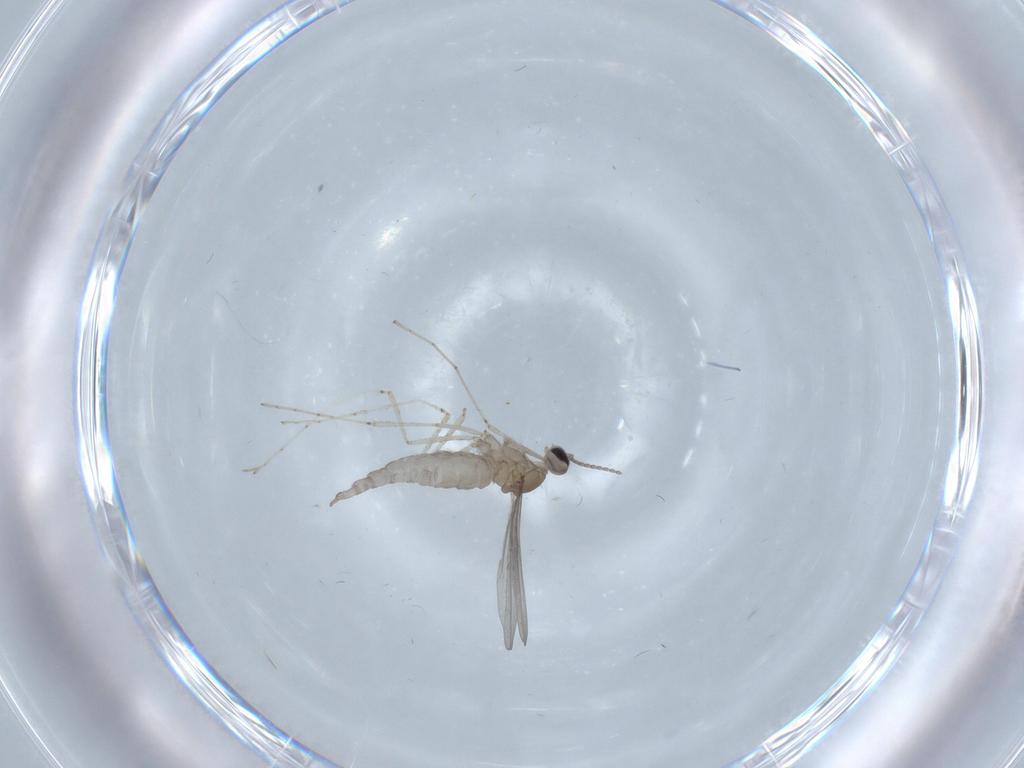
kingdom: Animalia
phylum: Arthropoda
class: Insecta
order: Diptera
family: Cecidomyiidae
